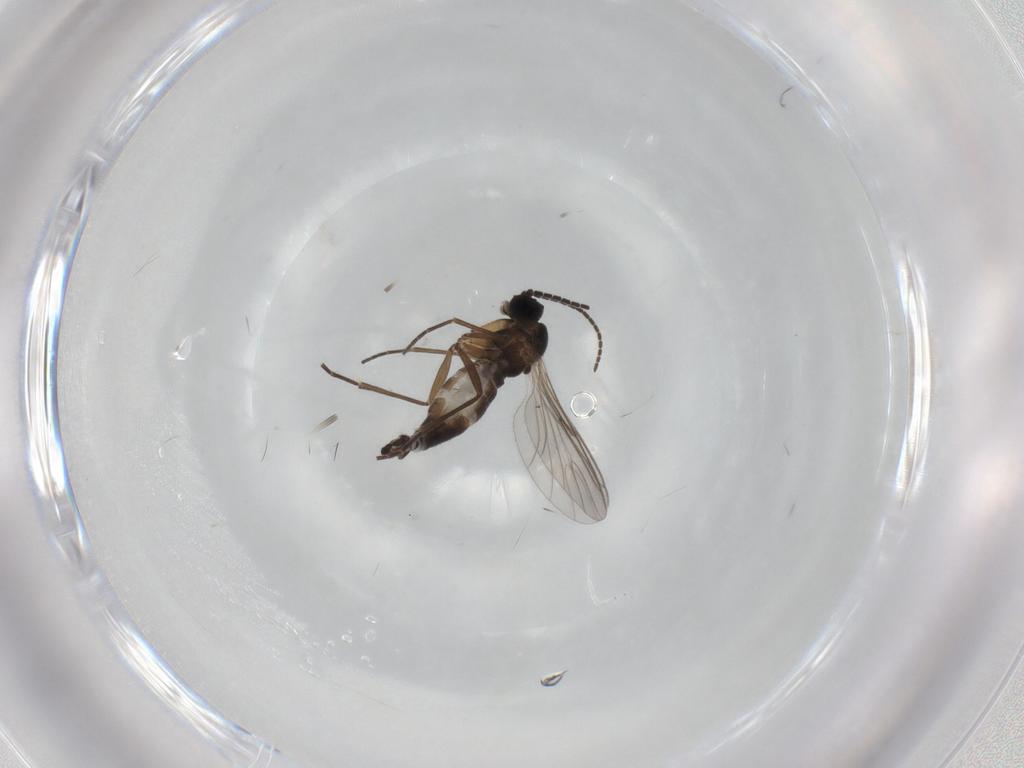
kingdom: Animalia
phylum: Arthropoda
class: Insecta
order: Diptera
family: Sciaridae
